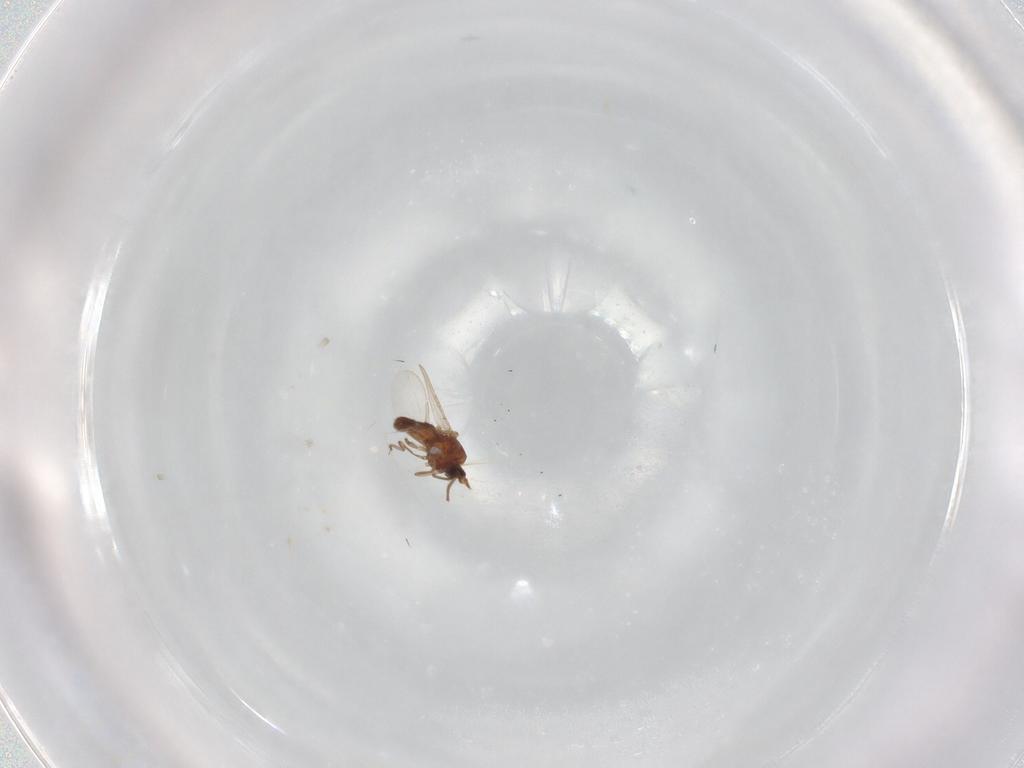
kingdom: Animalia
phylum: Arthropoda
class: Insecta
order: Diptera
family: Ceratopogonidae
